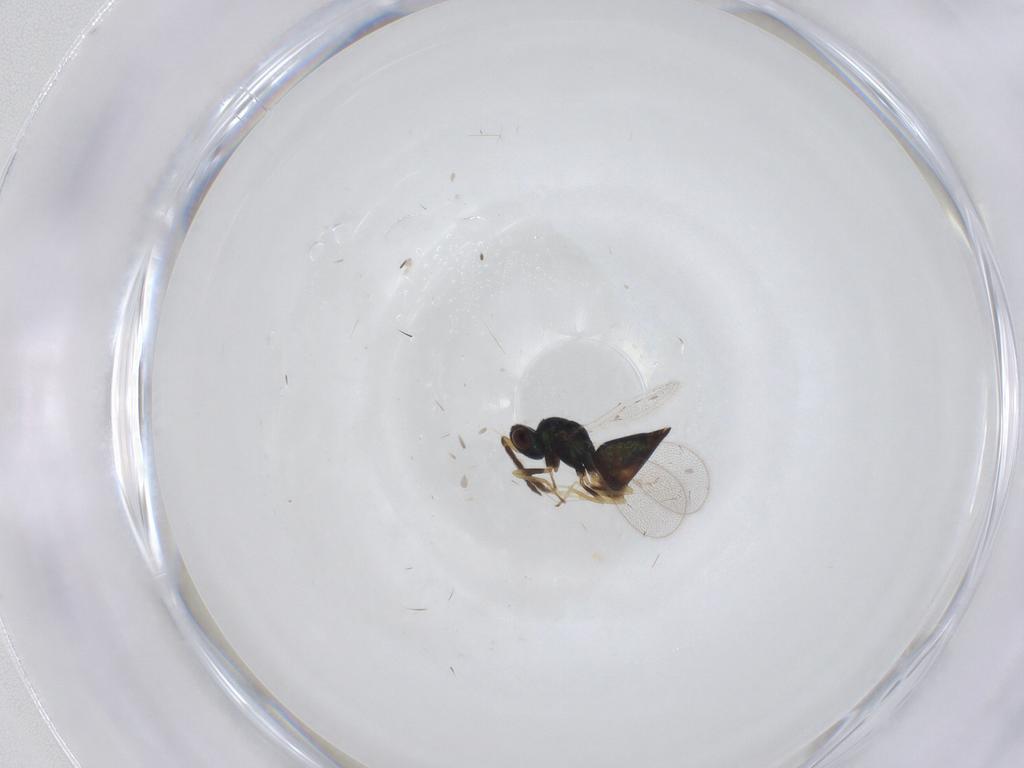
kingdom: Animalia
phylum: Arthropoda
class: Insecta
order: Hymenoptera
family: Eulophidae
